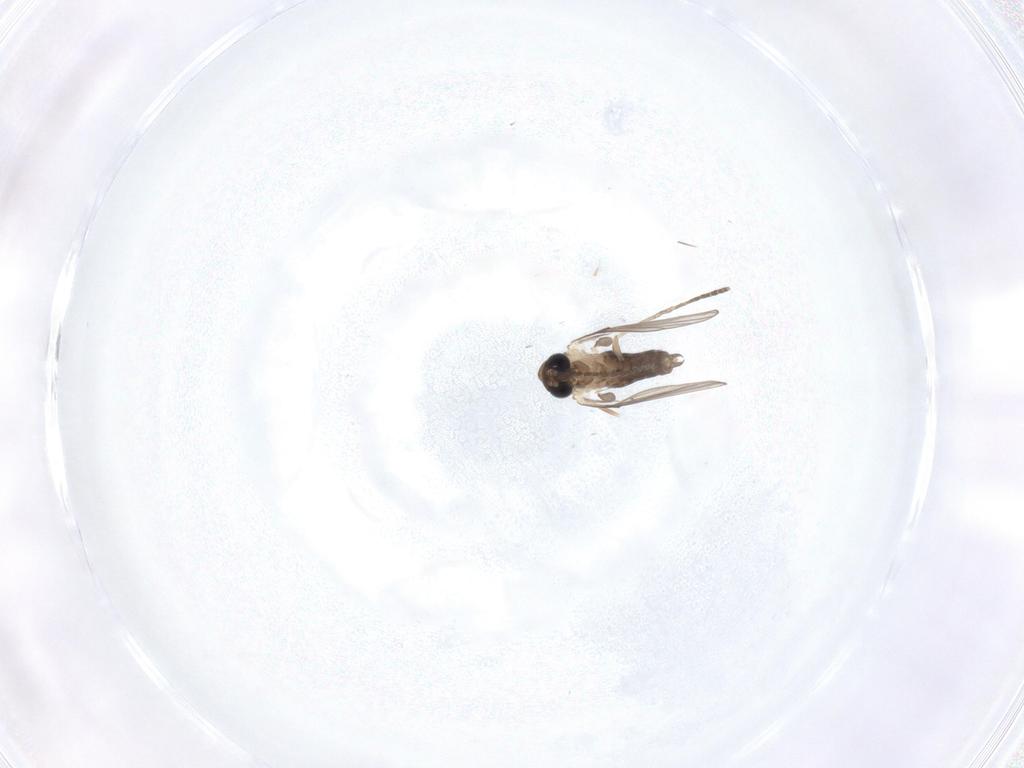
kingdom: Animalia
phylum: Arthropoda
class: Insecta
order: Diptera
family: Psychodidae
